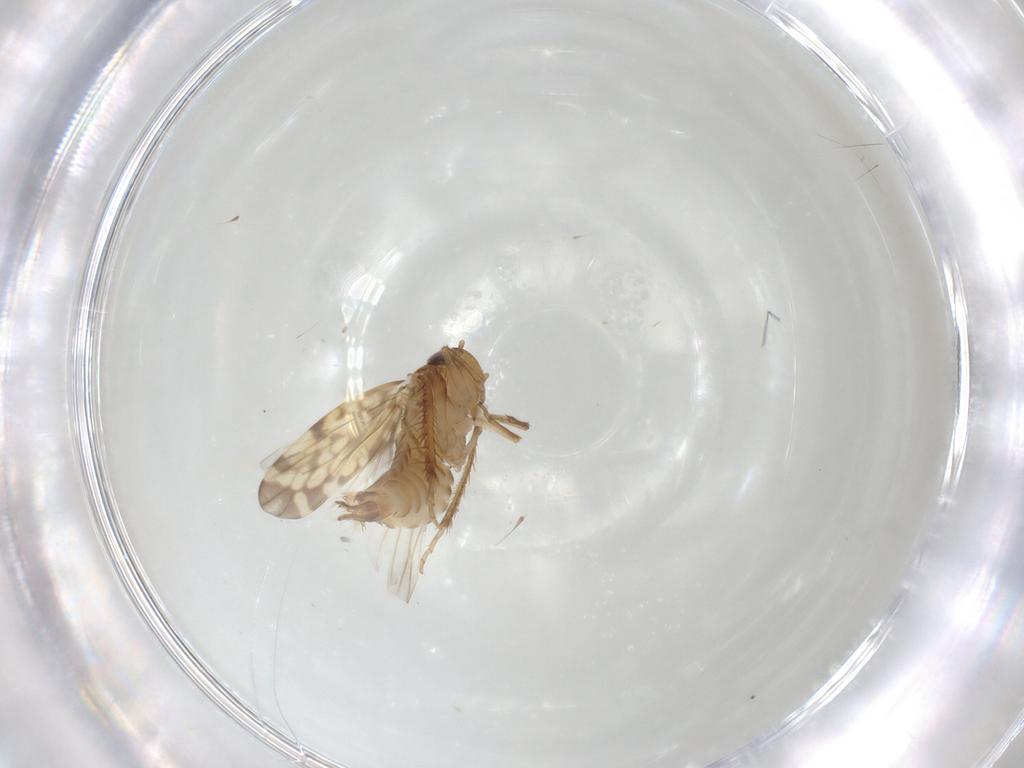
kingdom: Animalia
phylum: Arthropoda
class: Insecta
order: Hemiptera
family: Cicadellidae
